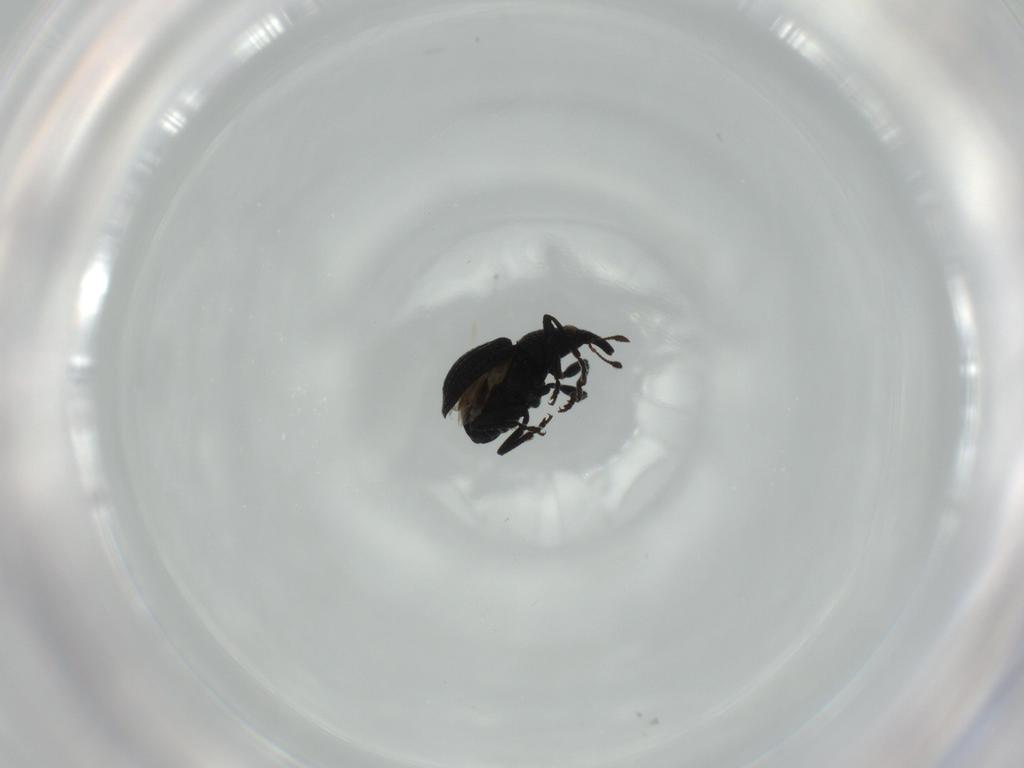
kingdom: Animalia
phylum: Arthropoda
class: Insecta
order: Coleoptera
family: Brentidae
